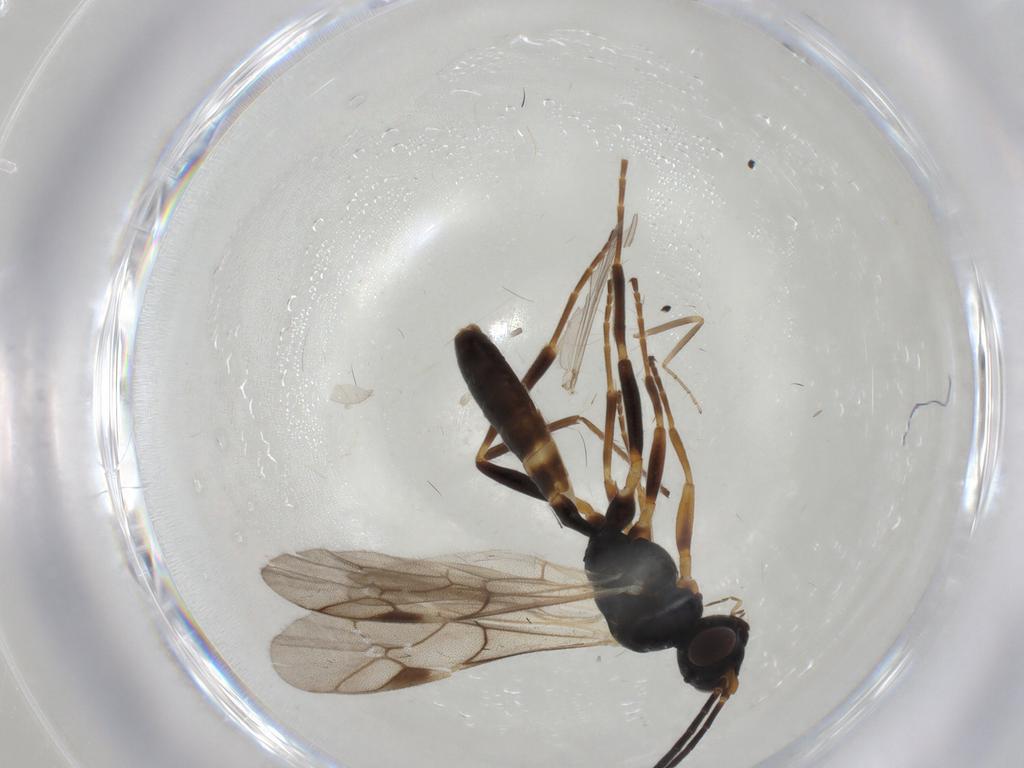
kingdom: Animalia
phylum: Arthropoda
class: Insecta
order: Hymenoptera
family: Ichneumonidae
